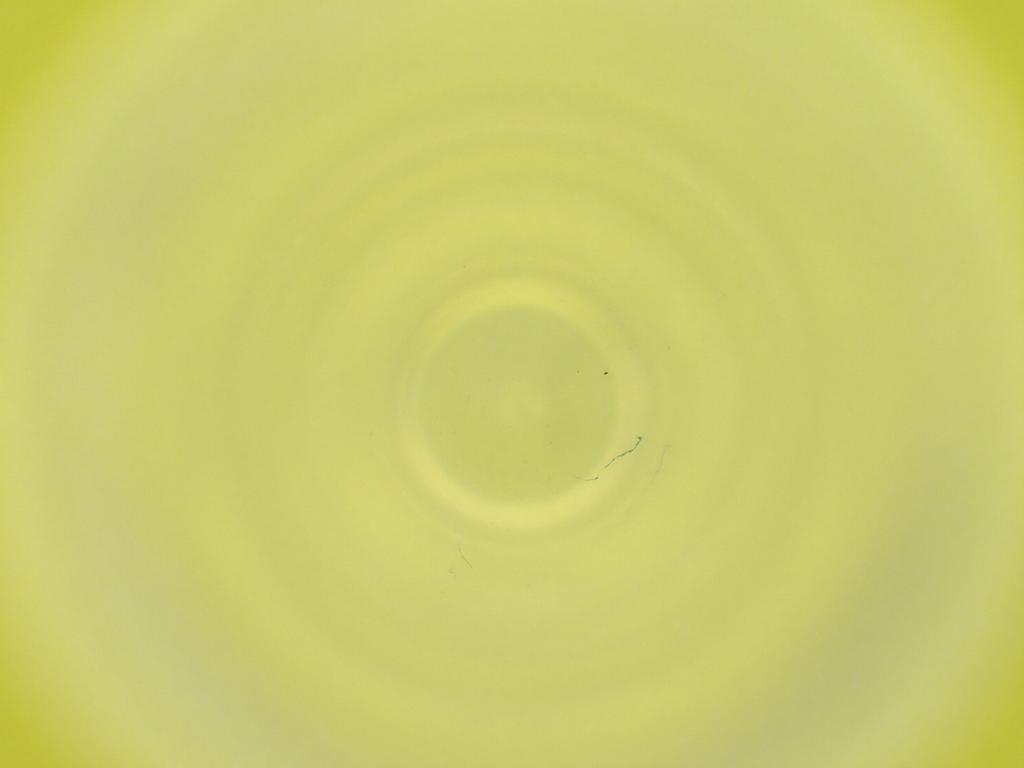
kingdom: Animalia
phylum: Arthropoda
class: Insecta
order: Diptera
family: Cecidomyiidae
